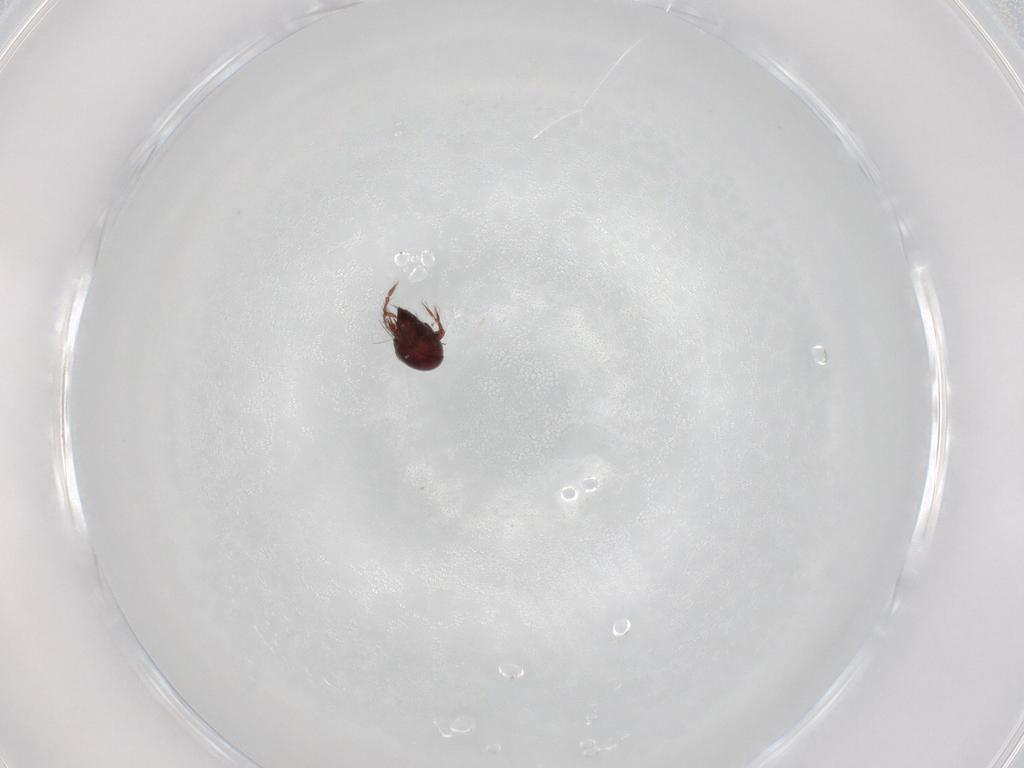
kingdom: Animalia
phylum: Arthropoda
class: Arachnida
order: Sarcoptiformes
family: Ceratoppiidae
